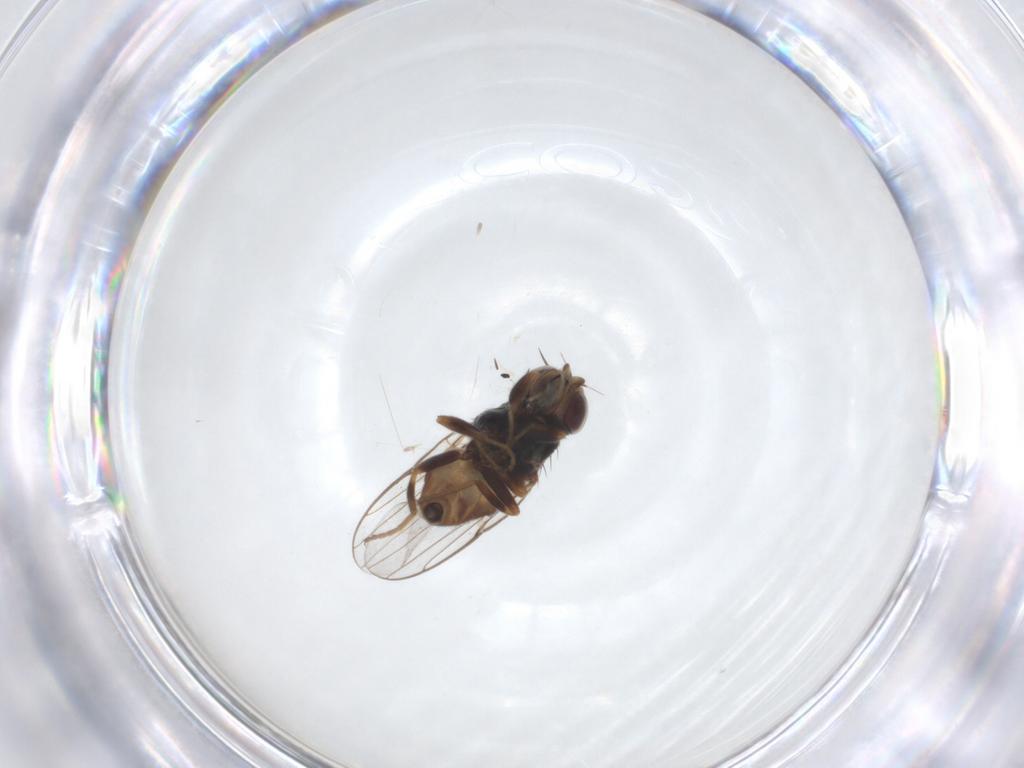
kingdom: Animalia
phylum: Arthropoda
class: Insecta
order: Diptera
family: Chloropidae
